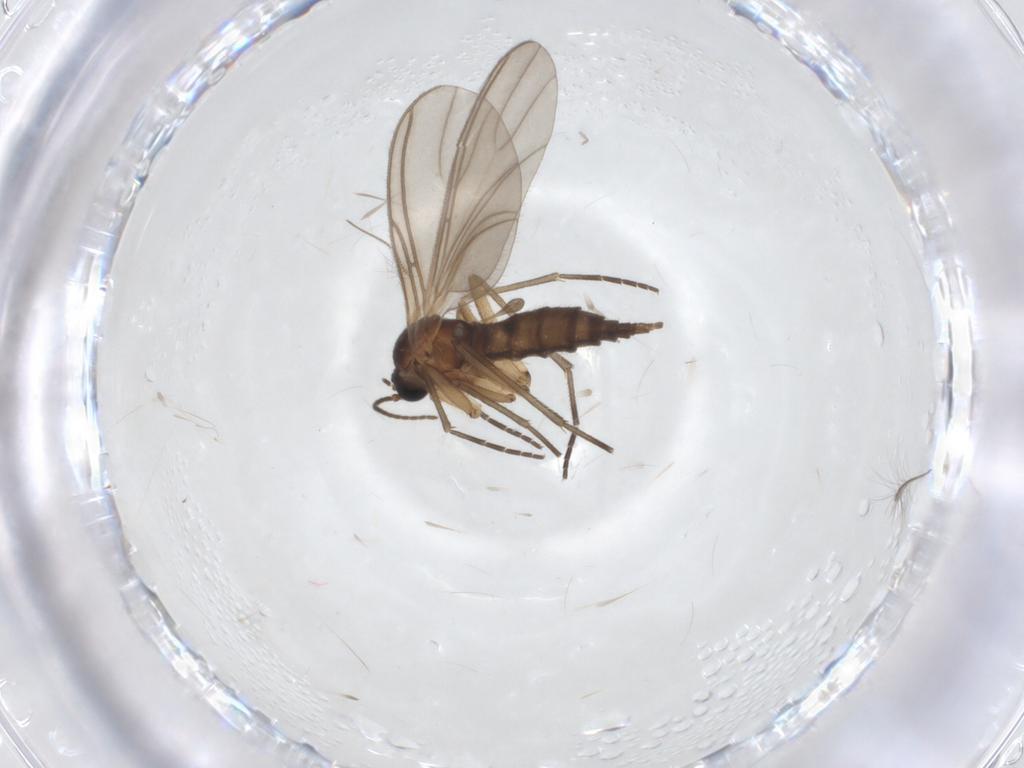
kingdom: Animalia
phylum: Arthropoda
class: Insecta
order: Diptera
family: Sciaridae
